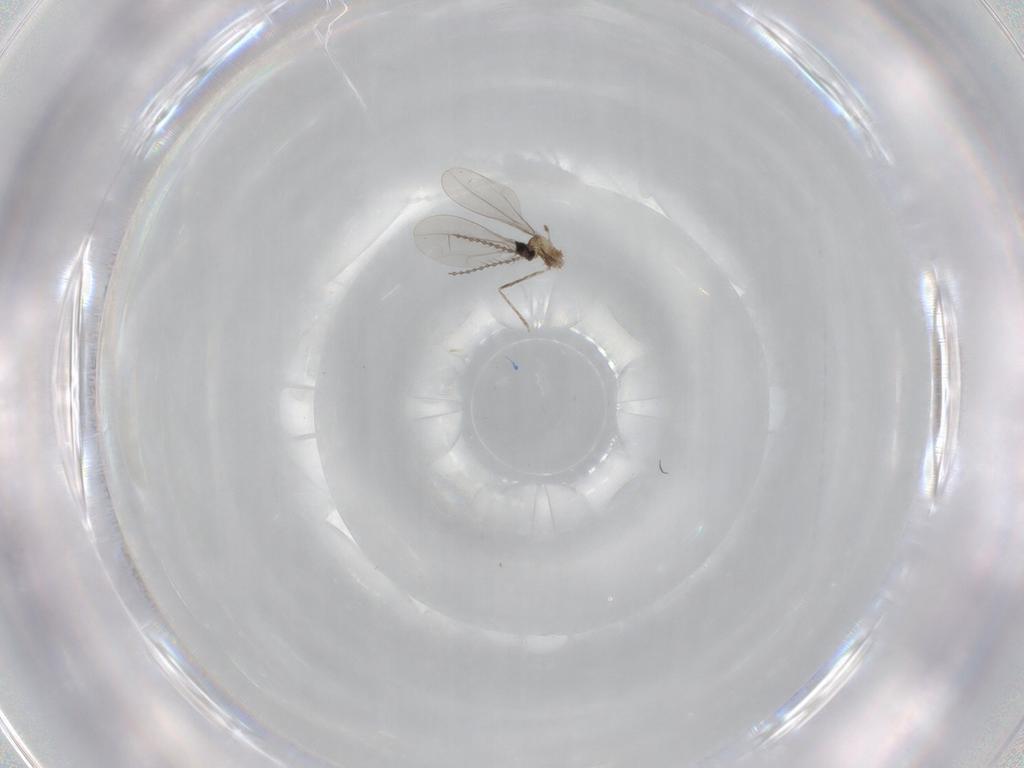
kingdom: Animalia
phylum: Arthropoda
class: Insecta
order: Diptera
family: Cecidomyiidae
